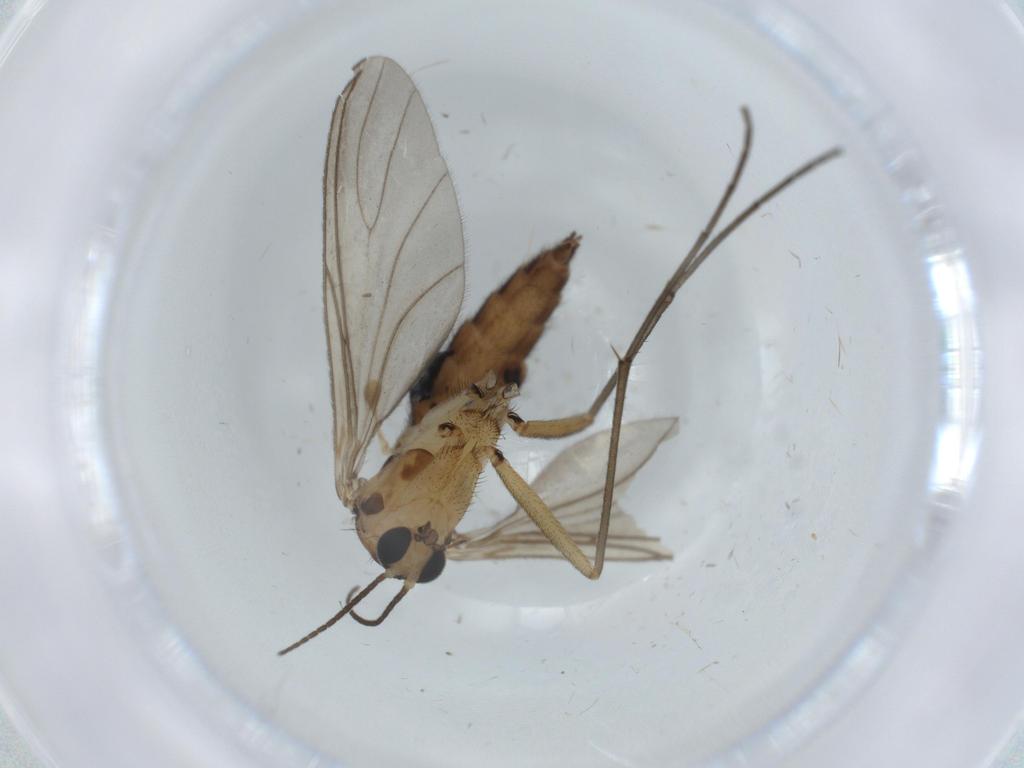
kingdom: Animalia
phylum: Arthropoda
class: Insecta
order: Diptera
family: Sciaridae
